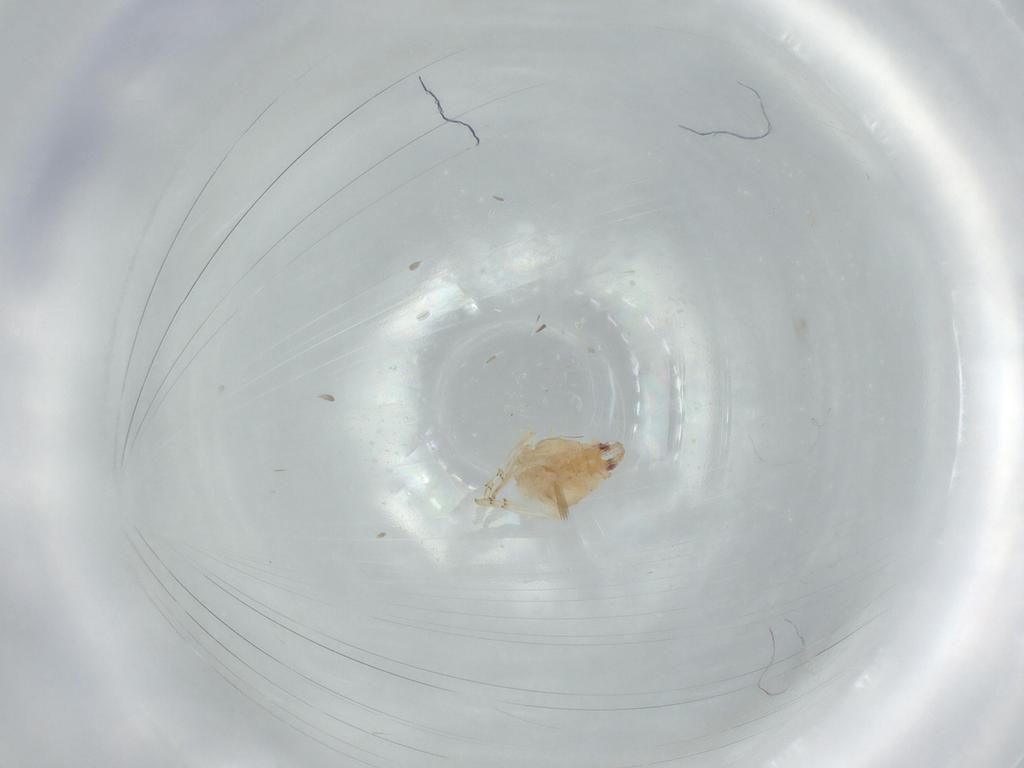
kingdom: Animalia
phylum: Arthropoda
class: Insecta
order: Hemiptera
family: Flatidae
